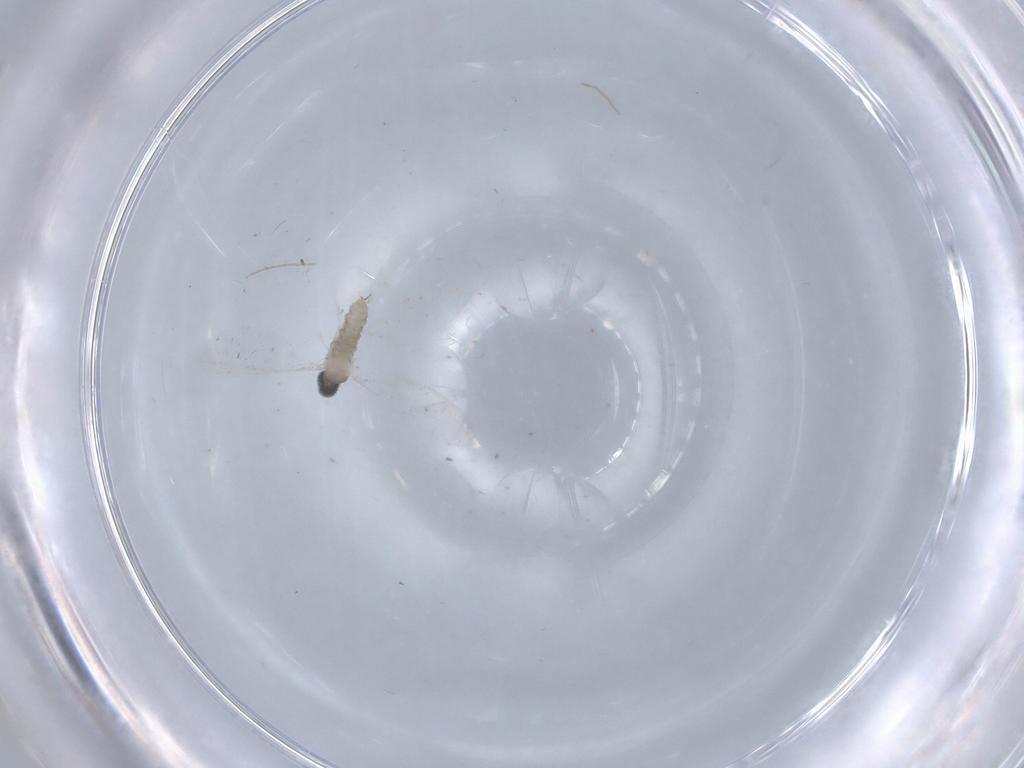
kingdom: Animalia
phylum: Arthropoda
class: Insecta
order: Diptera
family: Cecidomyiidae
